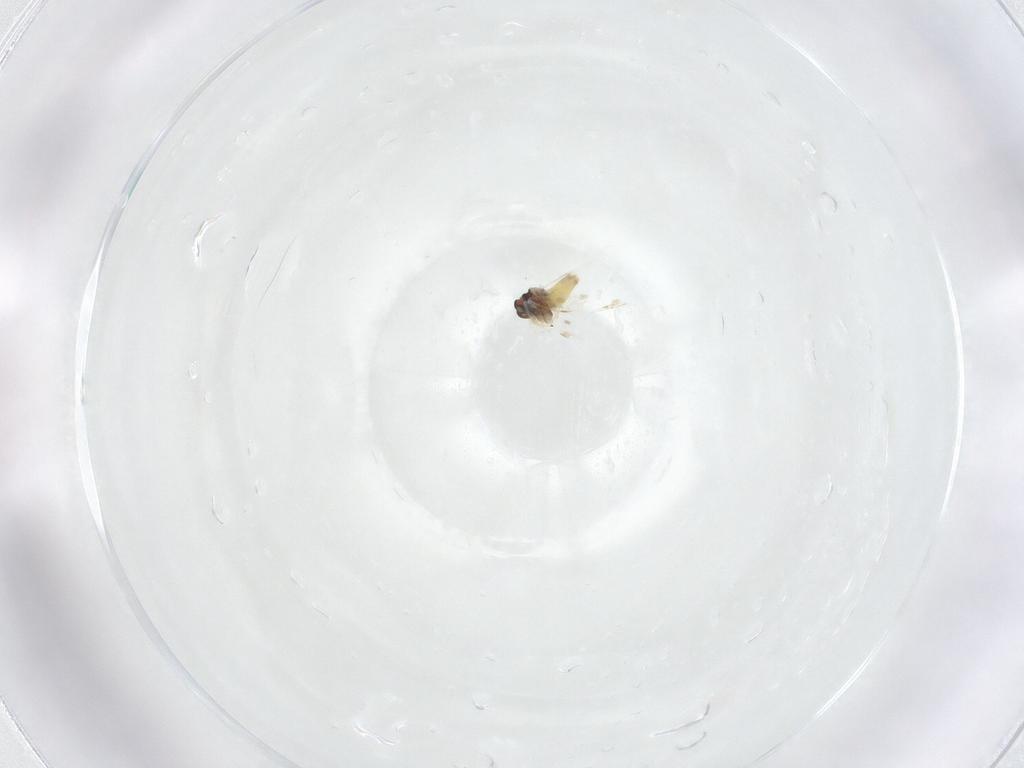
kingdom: Animalia
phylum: Arthropoda
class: Insecta
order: Hemiptera
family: Aleyrodidae
